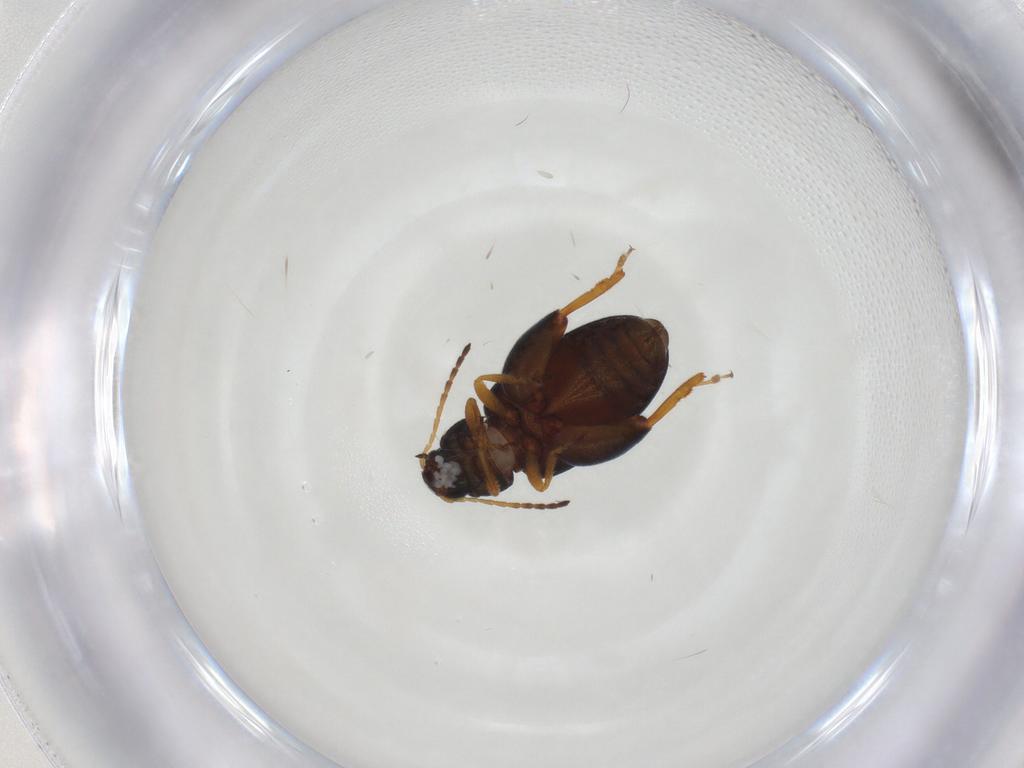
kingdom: Animalia
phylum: Arthropoda
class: Insecta
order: Coleoptera
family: Chrysomelidae
